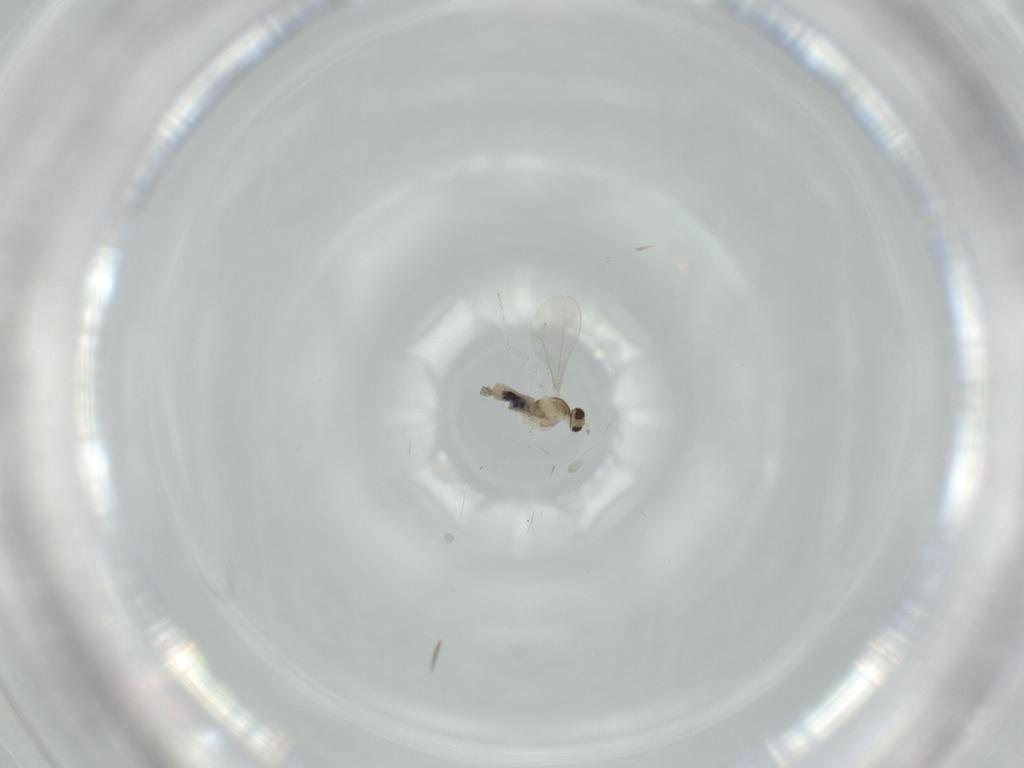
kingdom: Animalia
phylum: Arthropoda
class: Insecta
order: Diptera
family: Cecidomyiidae
